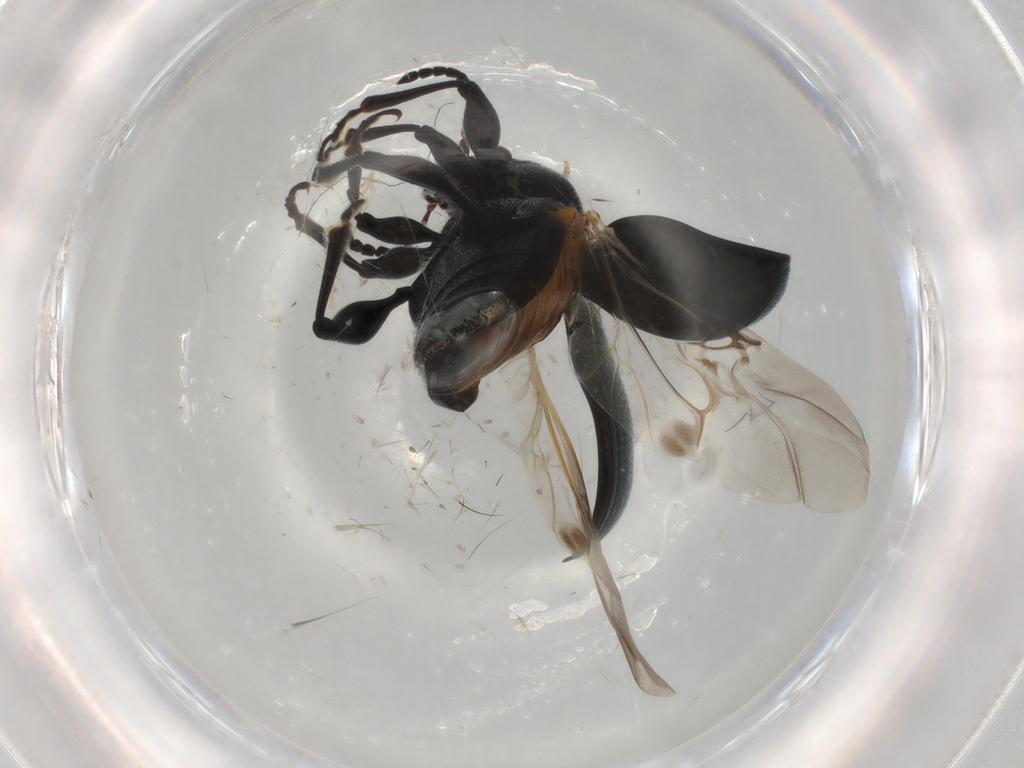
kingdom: Animalia
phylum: Arthropoda
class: Insecta
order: Coleoptera
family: Chrysomelidae
